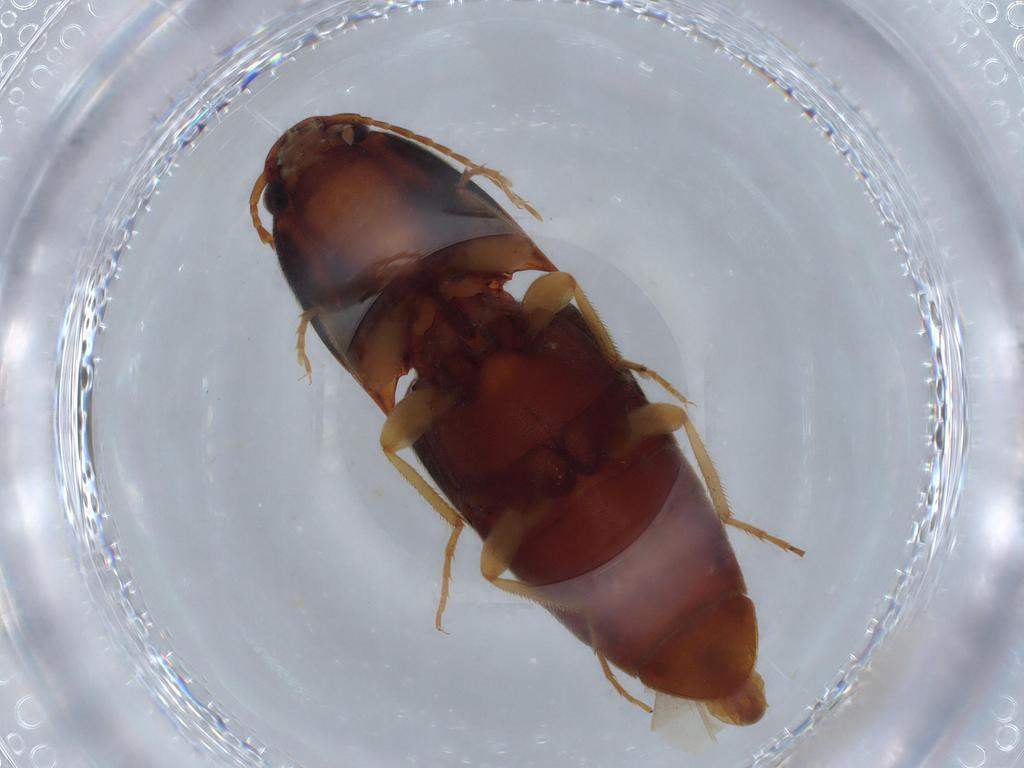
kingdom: Animalia
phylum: Arthropoda
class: Insecta
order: Coleoptera
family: Elateridae
